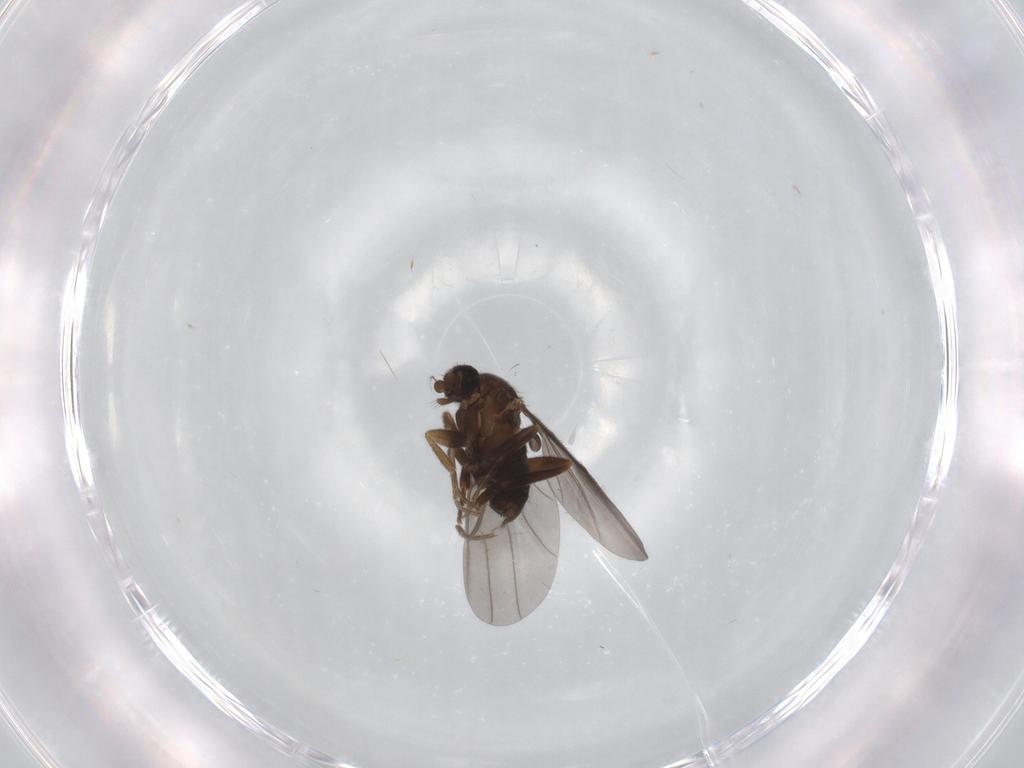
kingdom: Animalia
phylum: Arthropoda
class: Insecta
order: Diptera
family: Phoridae
